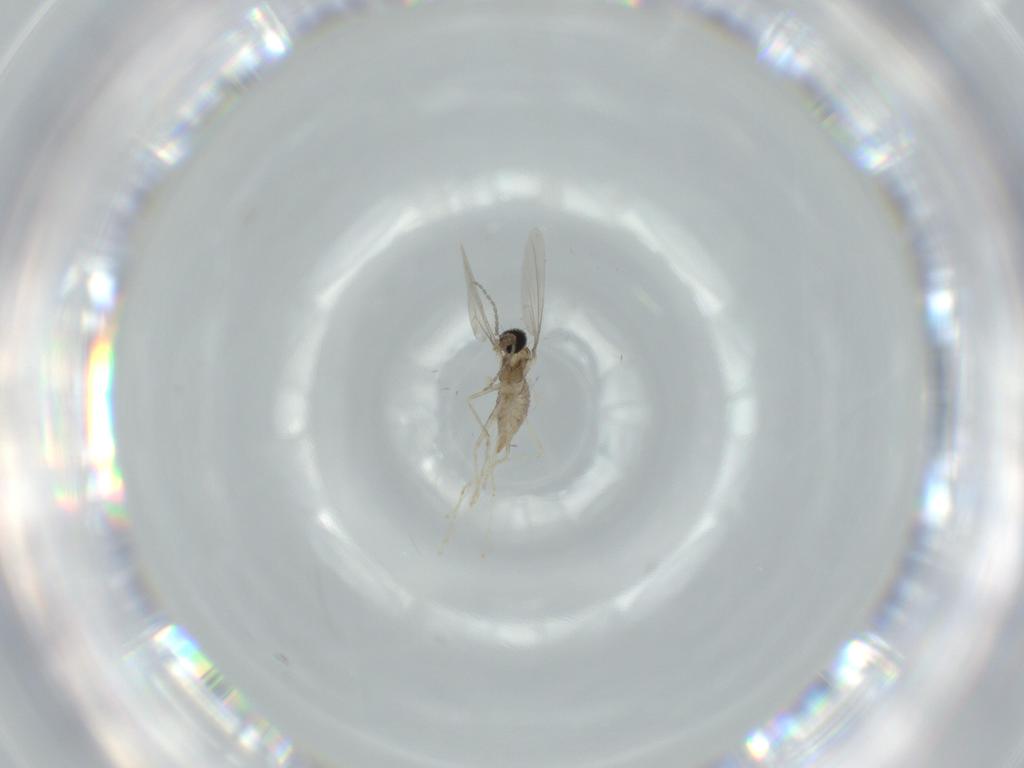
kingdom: Animalia
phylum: Arthropoda
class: Insecta
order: Diptera
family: Cecidomyiidae
